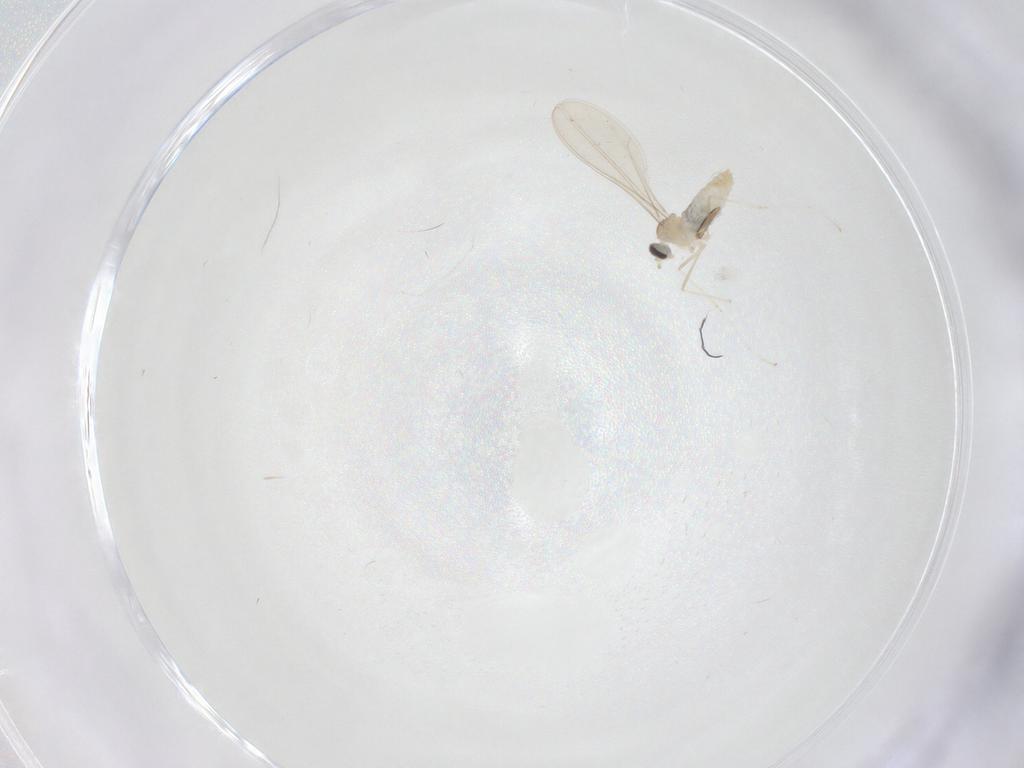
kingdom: Animalia
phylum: Arthropoda
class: Insecta
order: Diptera
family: Cecidomyiidae
